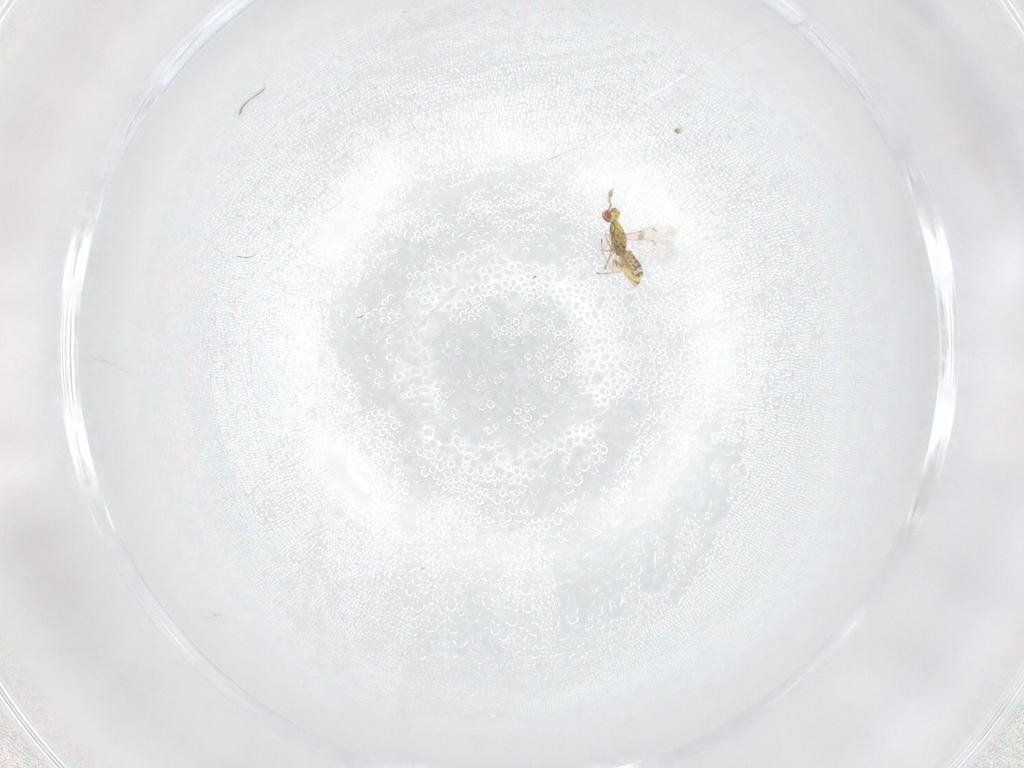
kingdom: Animalia
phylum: Arthropoda
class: Insecta
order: Hymenoptera
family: Eulophidae
